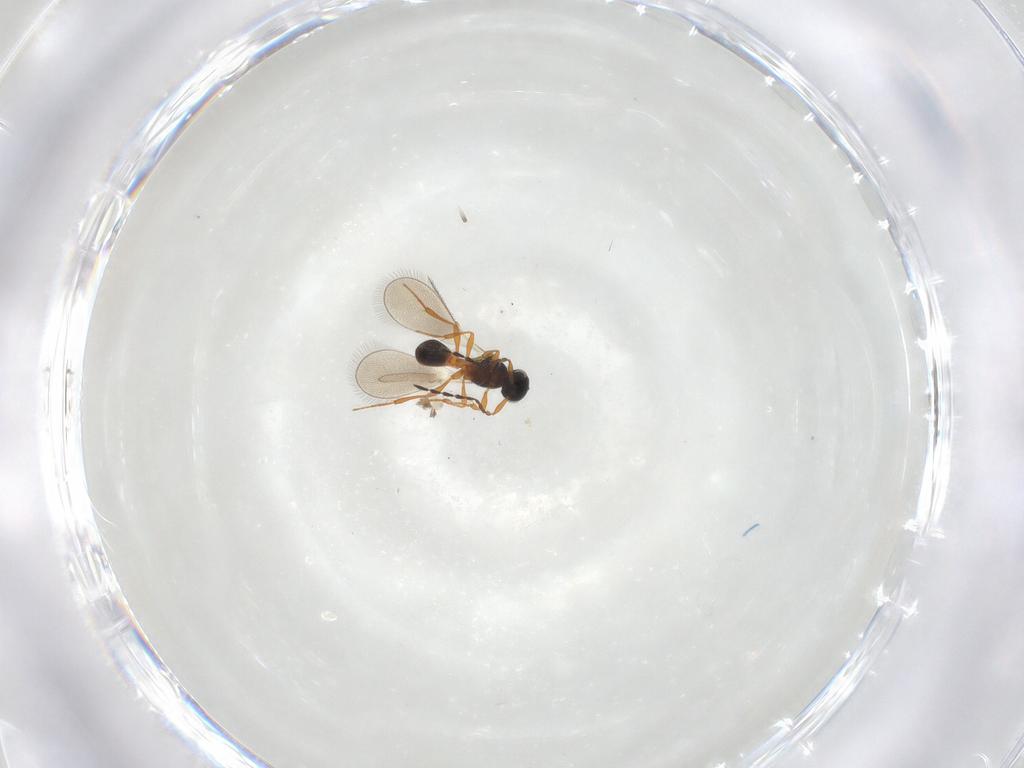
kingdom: Animalia
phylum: Arthropoda
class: Insecta
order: Hymenoptera
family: Platygastridae
